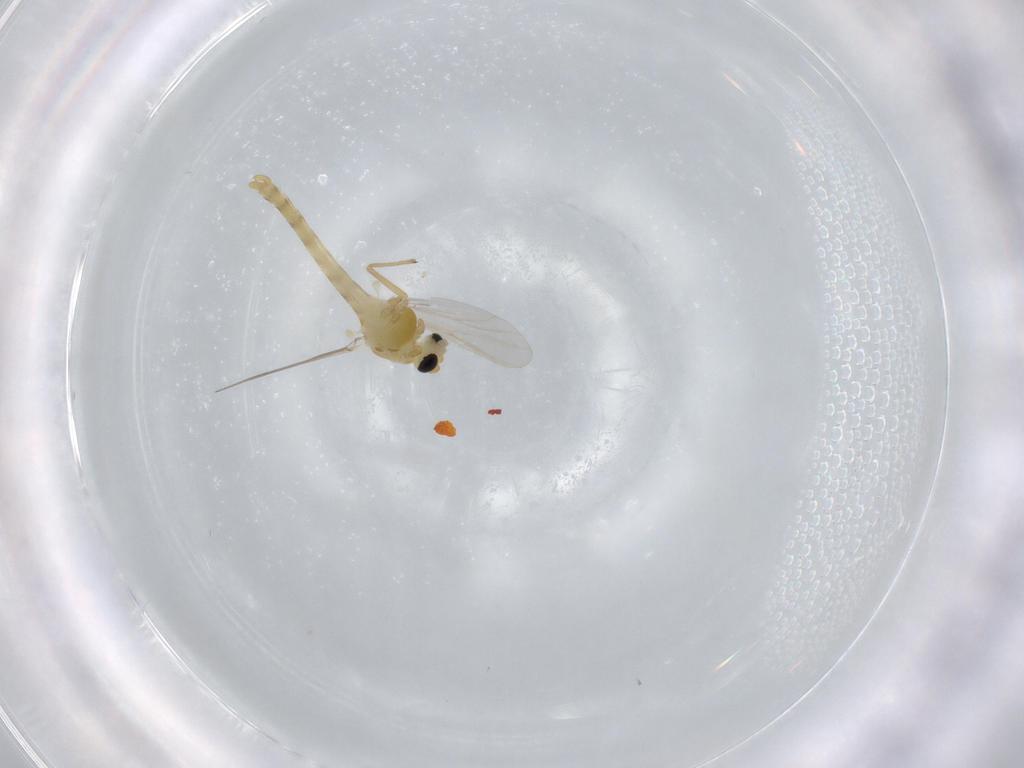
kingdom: Animalia
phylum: Arthropoda
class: Insecta
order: Diptera
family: Chironomidae
